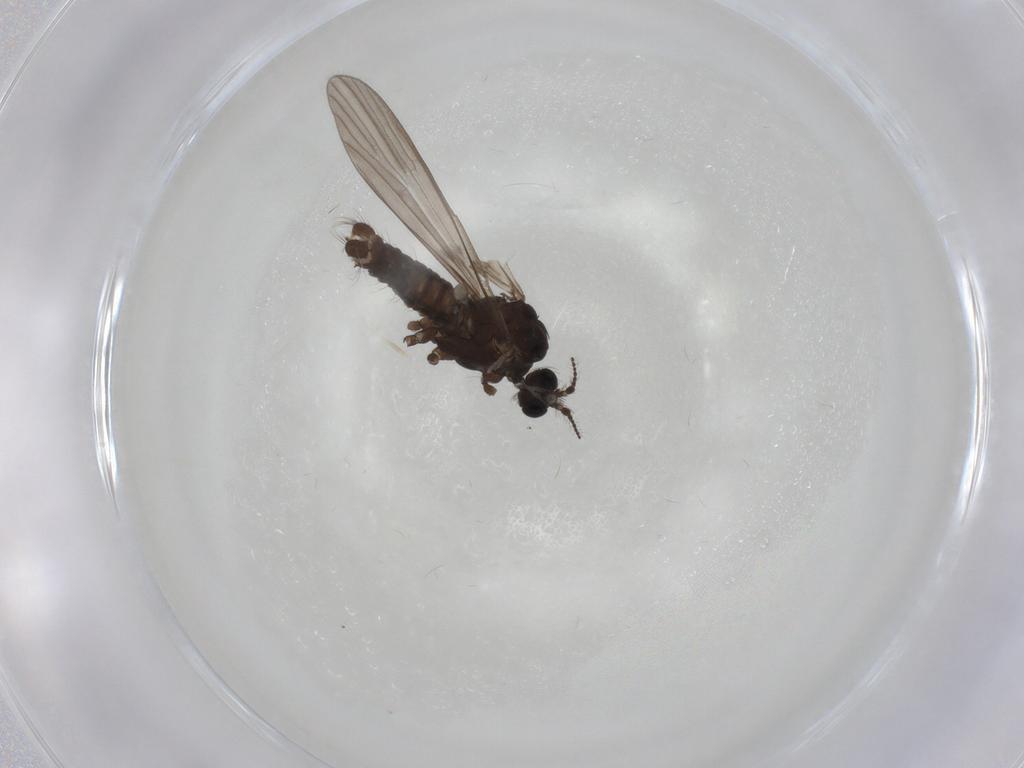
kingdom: Animalia
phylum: Arthropoda
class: Insecta
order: Diptera
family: Limoniidae
